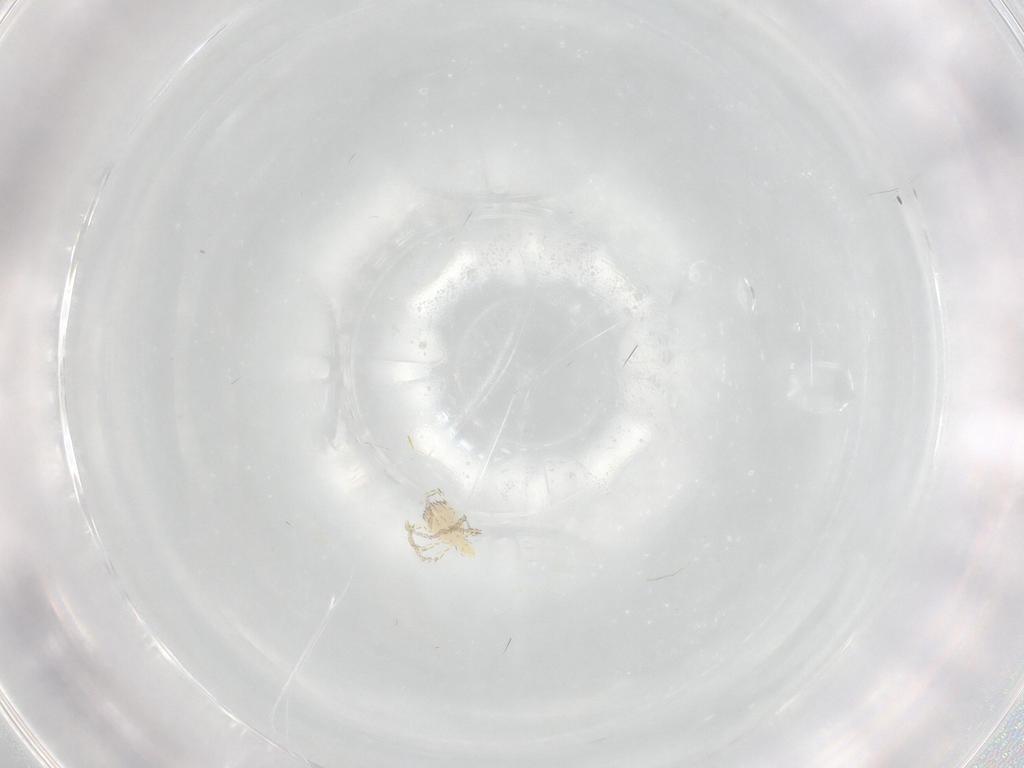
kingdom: Animalia
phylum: Arthropoda
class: Arachnida
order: Trombidiformes
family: Erythraeidae
